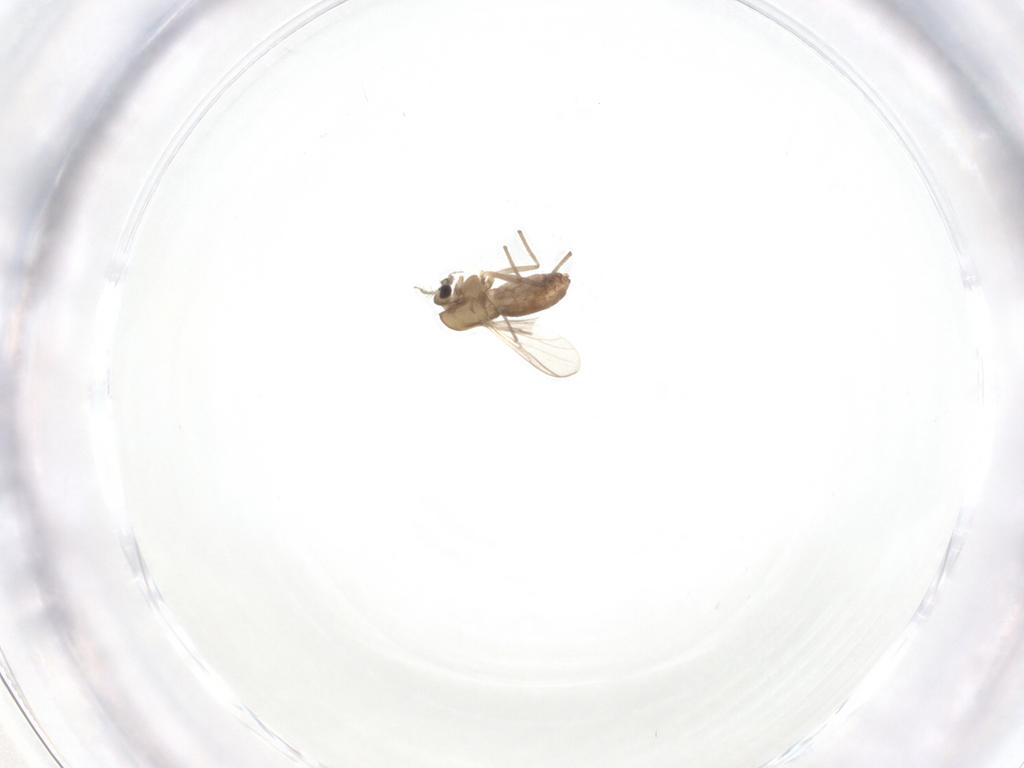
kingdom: Animalia
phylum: Arthropoda
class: Insecta
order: Diptera
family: Chironomidae
